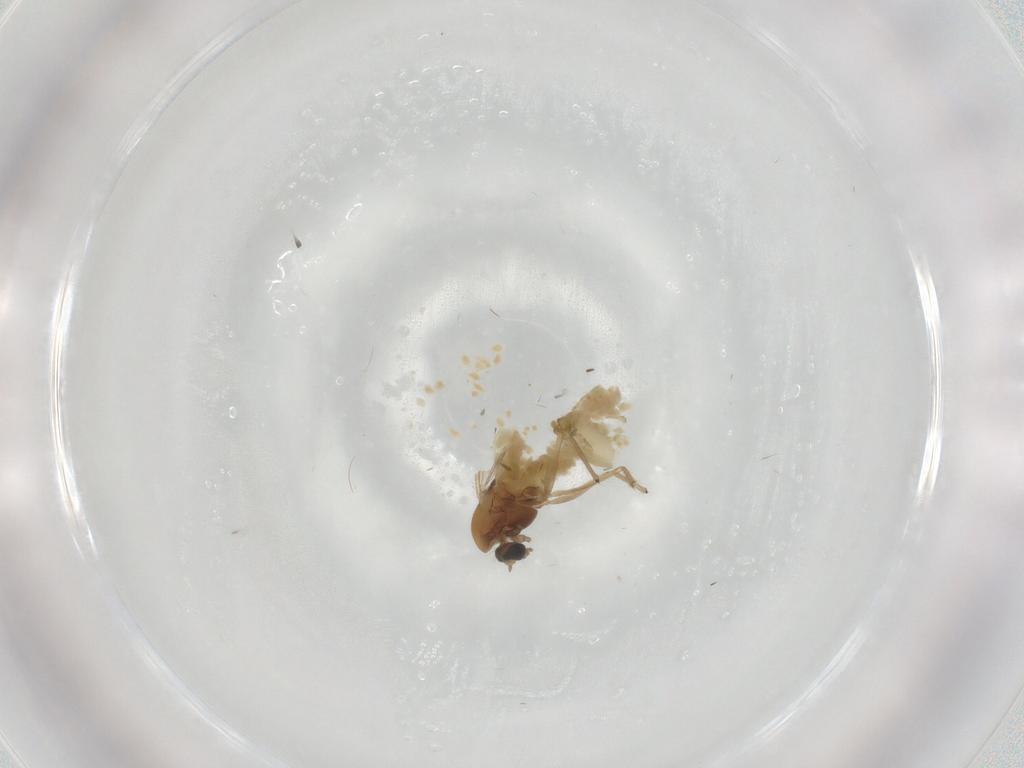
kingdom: Animalia
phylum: Arthropoda
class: Insecta
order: Diptera
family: Chironomidae
